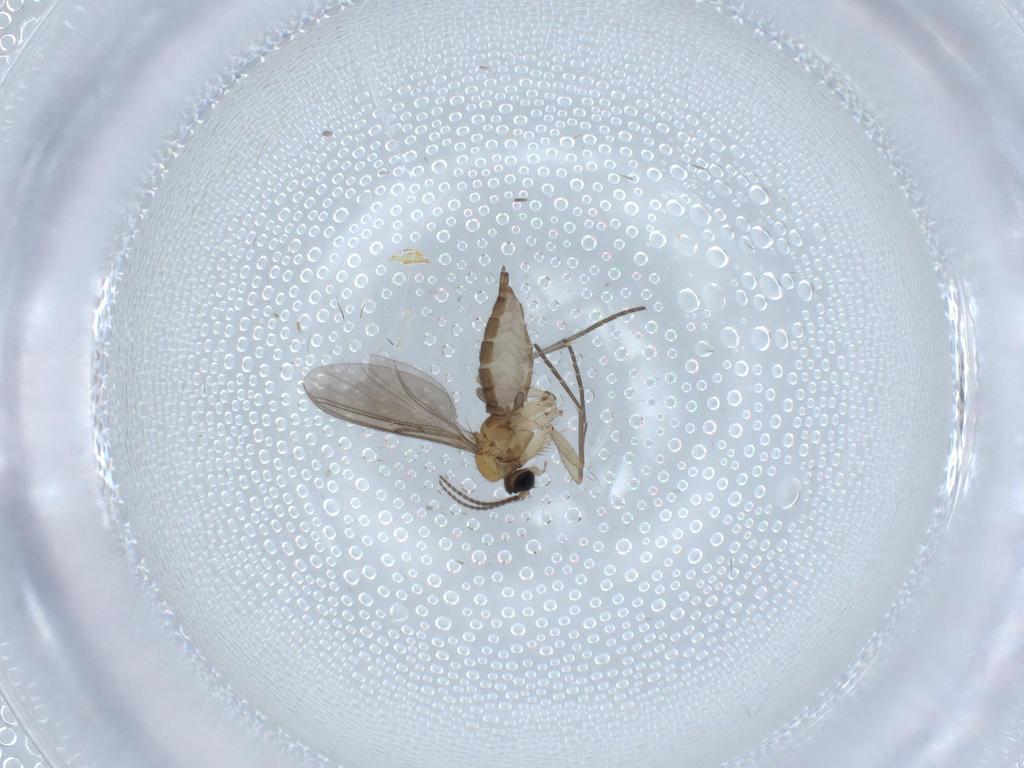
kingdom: Animalia
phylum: Arthropoda
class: Insecta
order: Diptera
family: Sciaridae
